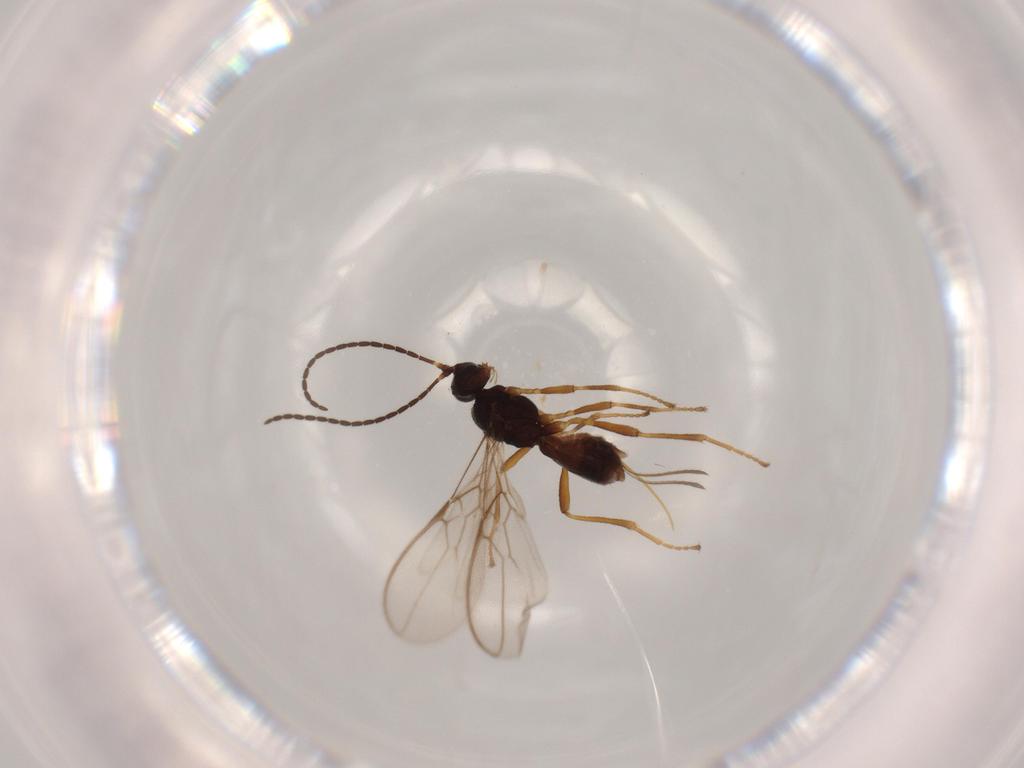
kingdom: Animalia
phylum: Arthropoda
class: Insecta
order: Hymenoptera
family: Braconidae
